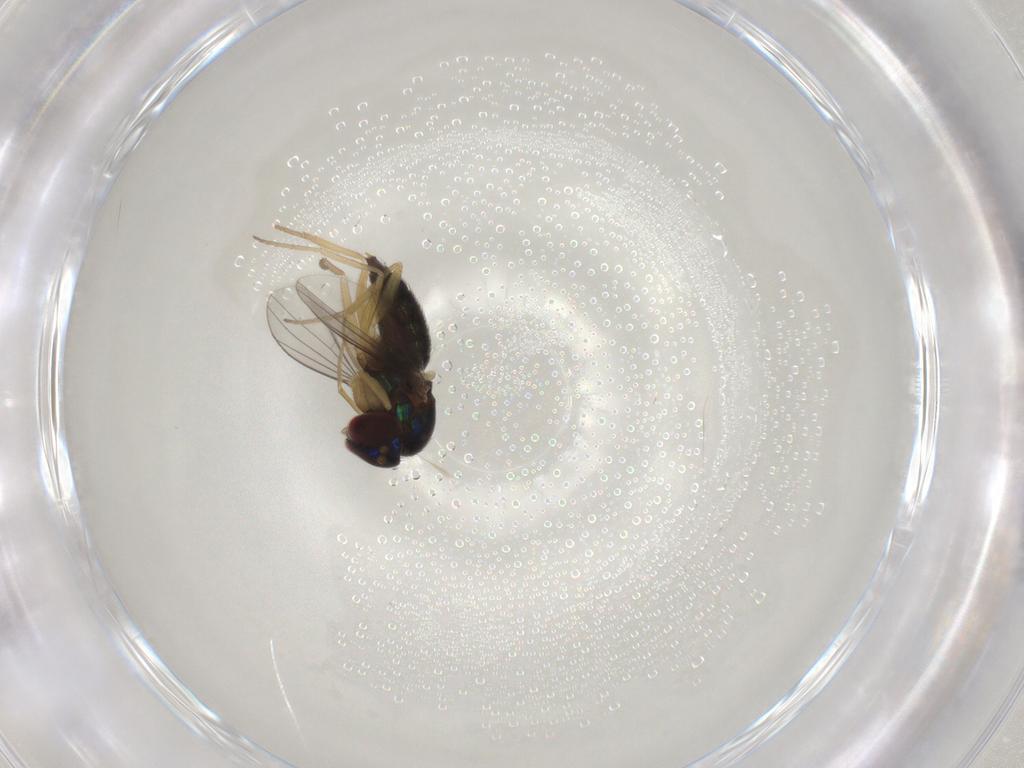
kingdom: Animalia
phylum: Arthropoda
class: Insecta
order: Diptera
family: Dolichopodidae
